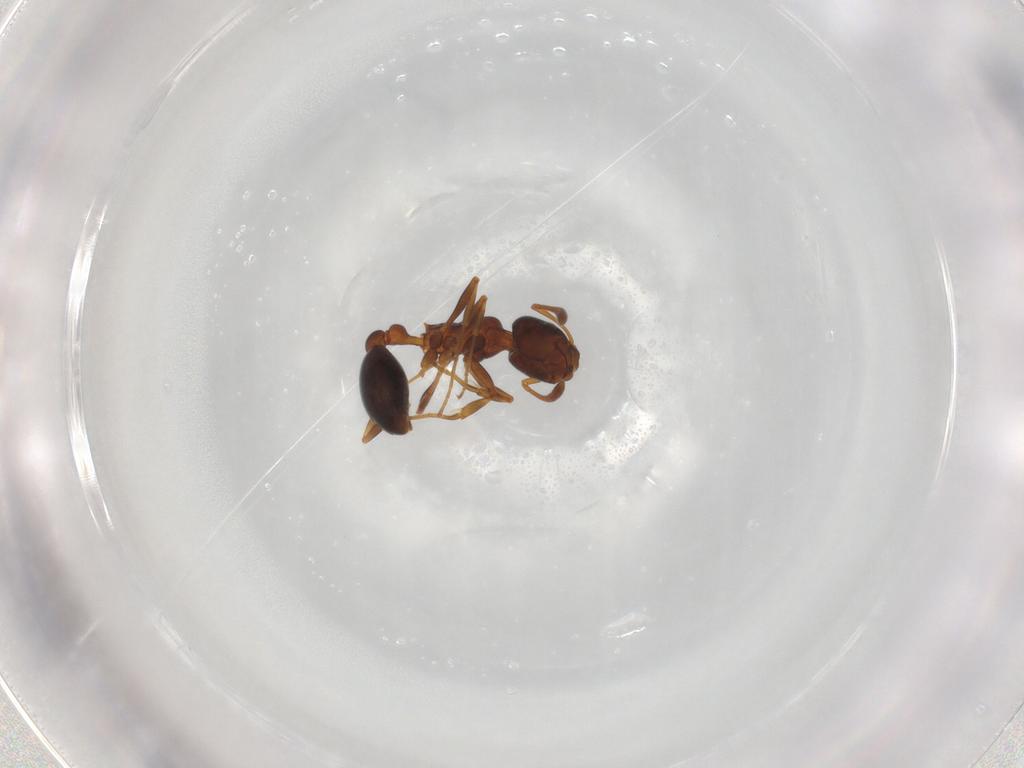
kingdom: Animalia
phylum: Arthropoda
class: Insecta
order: Hymenoptera
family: Formicidae
